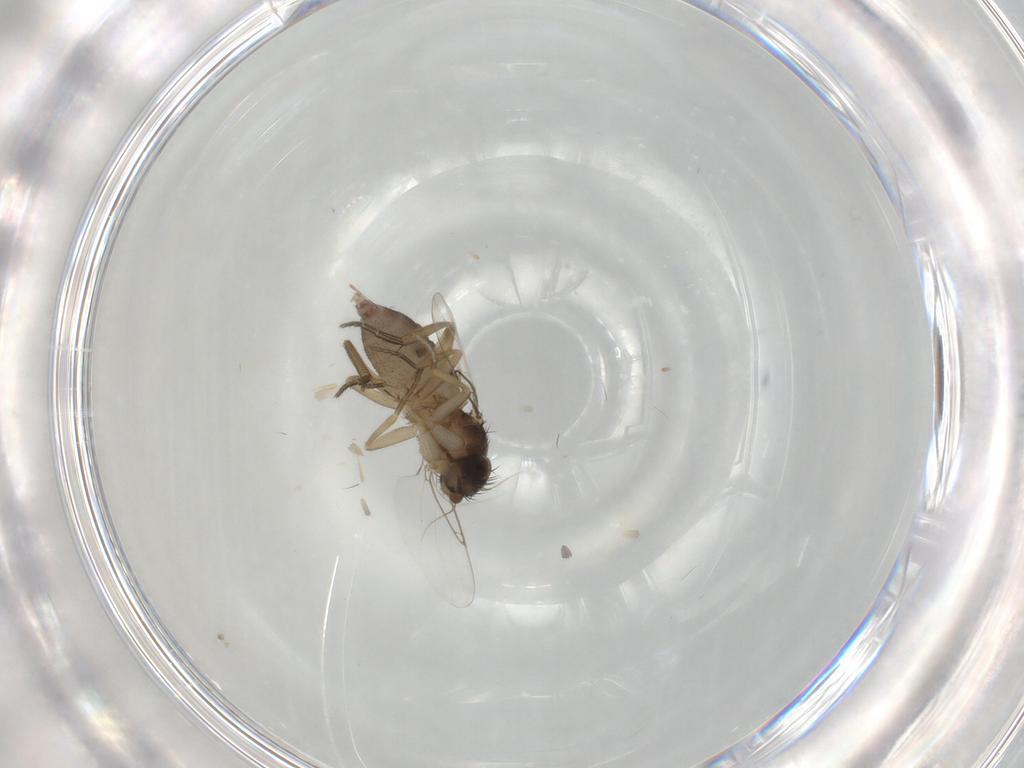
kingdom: Animalia
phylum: Arthropoda
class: Insecta
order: Diptera
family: Phoridae
